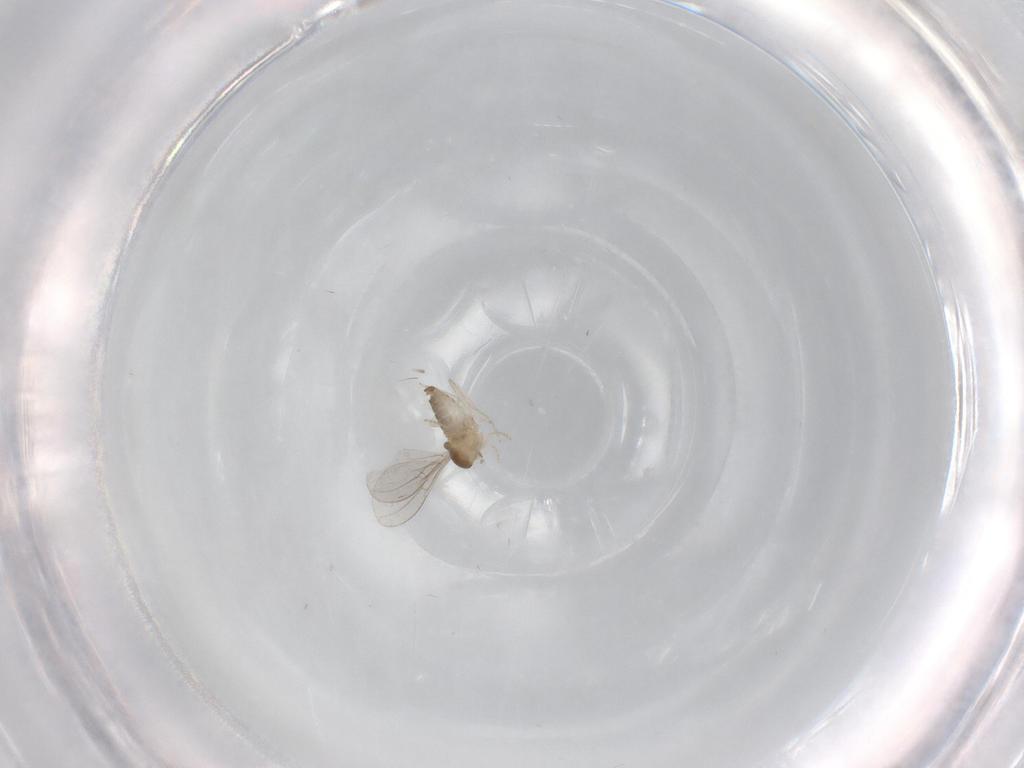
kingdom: Animalia
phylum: Arthropoda
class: Insecta
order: Diptera
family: Cecidomyiidae
